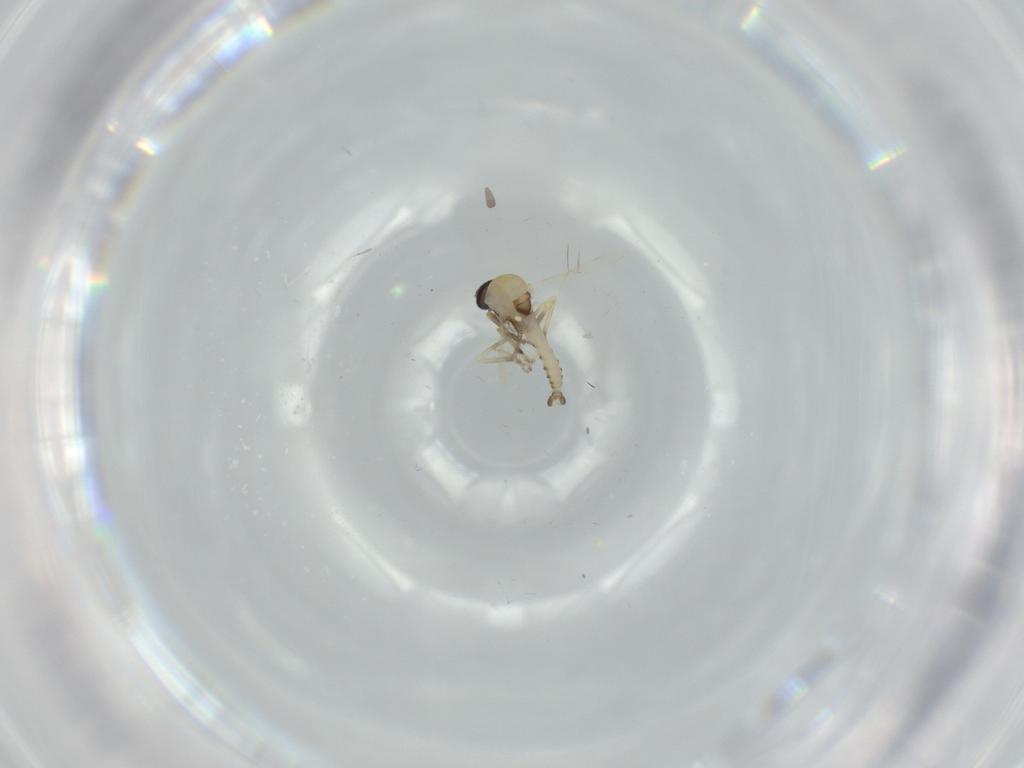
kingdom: Animalia
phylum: Arthropoda
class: Insecta
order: Diptera
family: Ceratopogonidae
